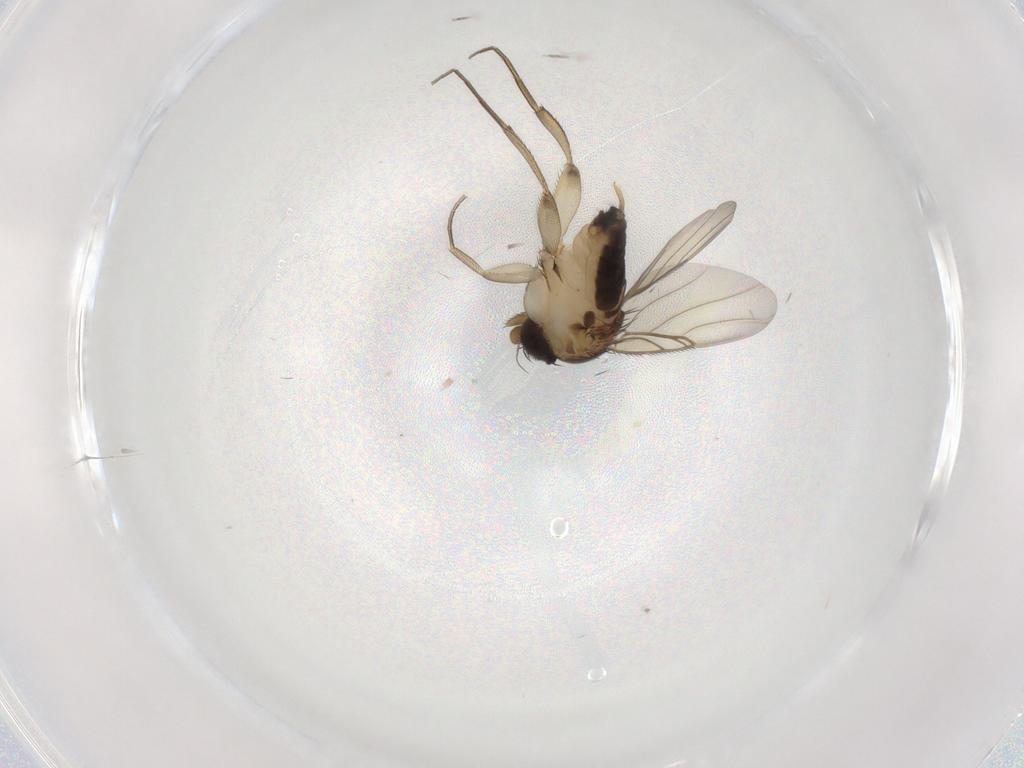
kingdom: Animalia
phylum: Arthropoda
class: Insecta
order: Diptera
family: Phoridae
